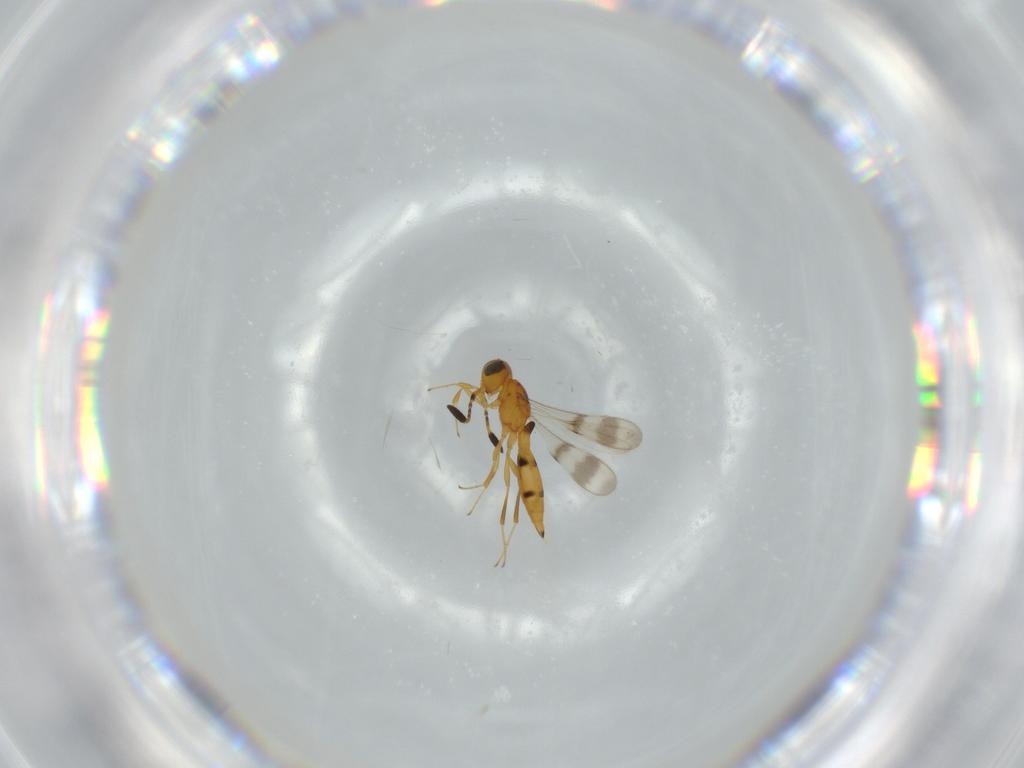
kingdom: Animalia
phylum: Arthropoda
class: Insecta
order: Hymenoptera
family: Scelionidae
